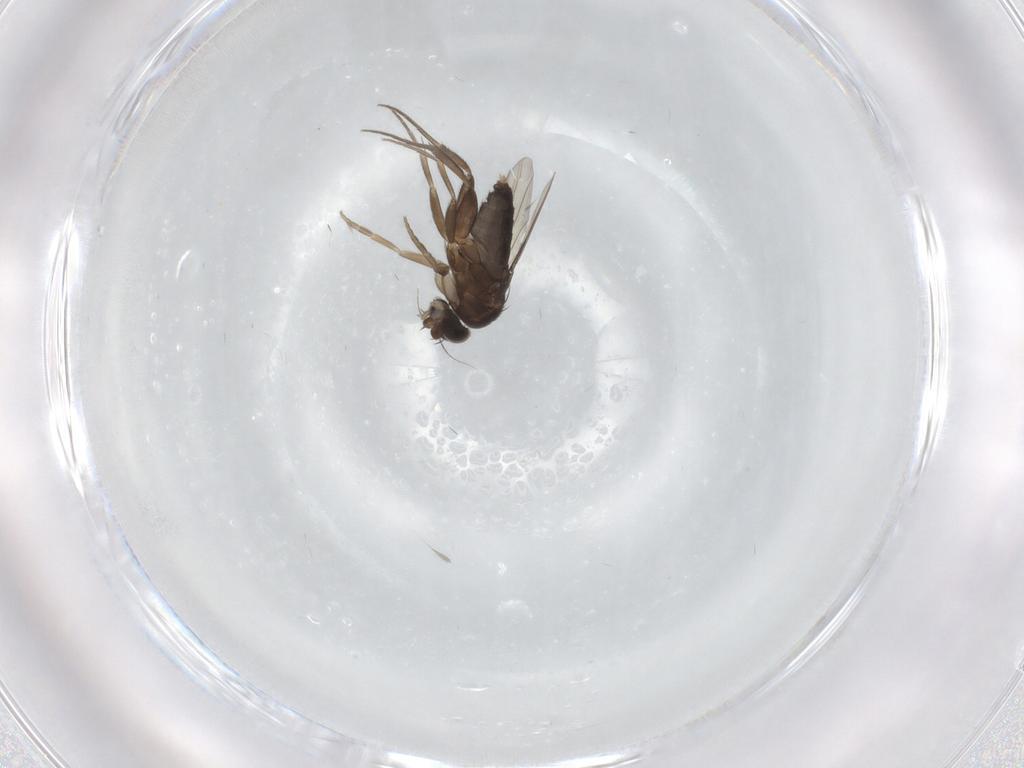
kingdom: Animalia
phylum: Arthropoda
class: Insecta
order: Diptera
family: Phoridae
